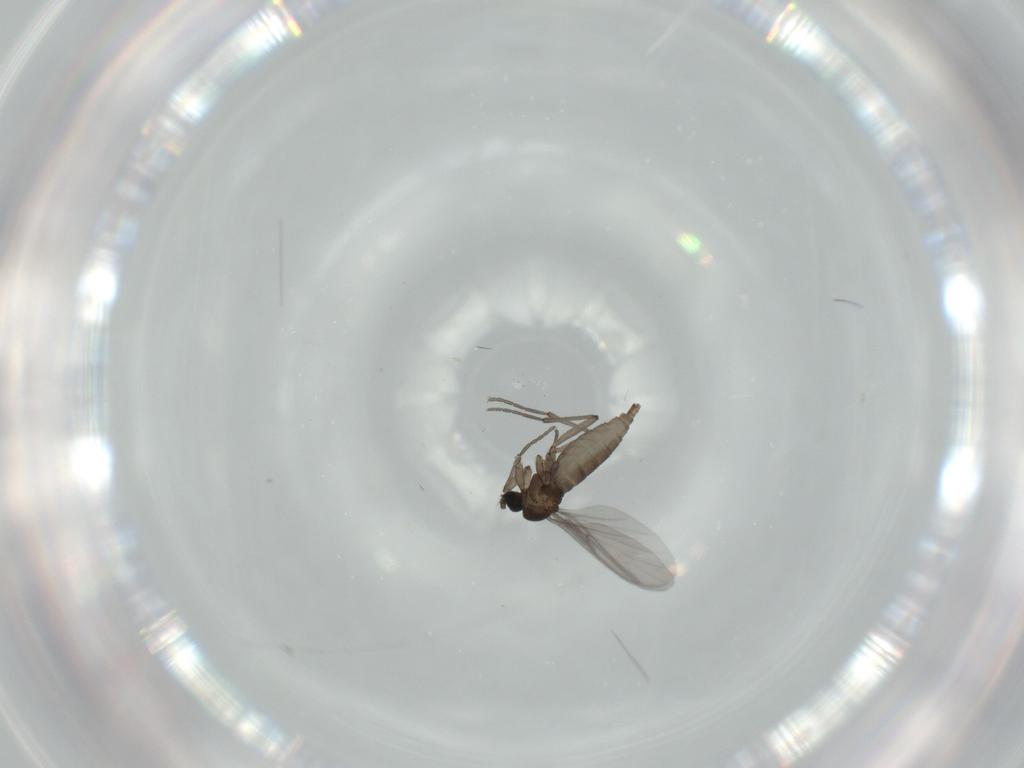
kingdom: Animalia
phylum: Arthropoda
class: Insecta
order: Diptera
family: Sciaridae
